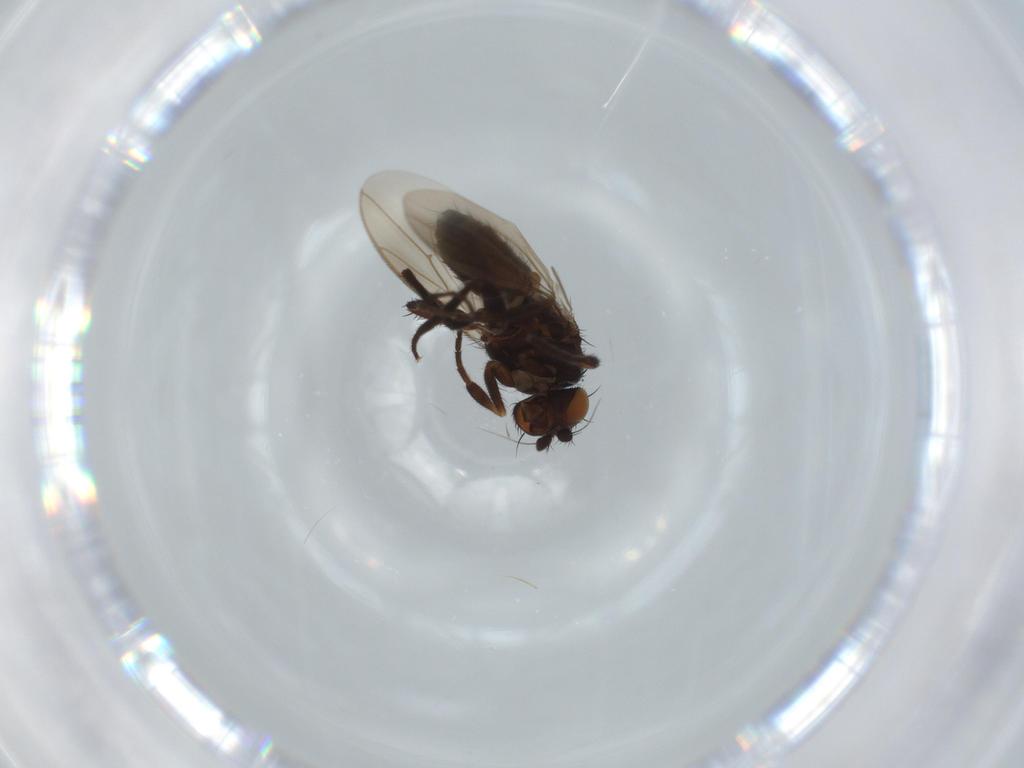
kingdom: Animalia
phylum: Arthropoda
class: Insecta
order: Diptera
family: Sphaeroceridae
